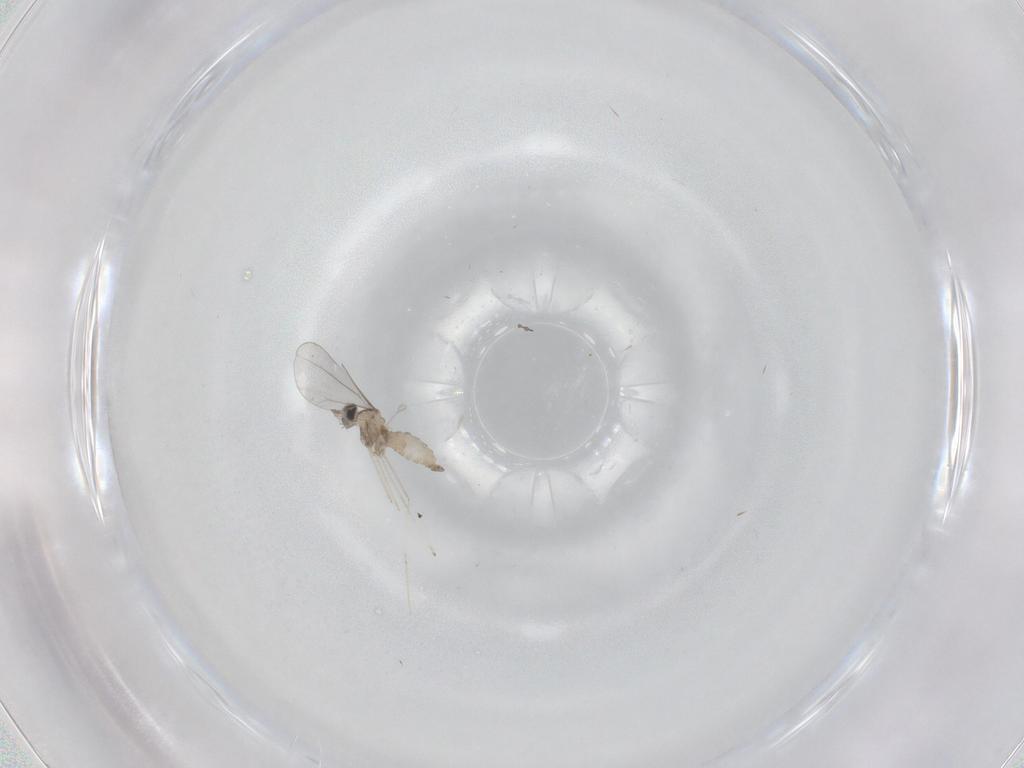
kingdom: Animalia
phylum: Arthropoda
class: Insecta
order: Diptera
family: Cecidomyiidae
